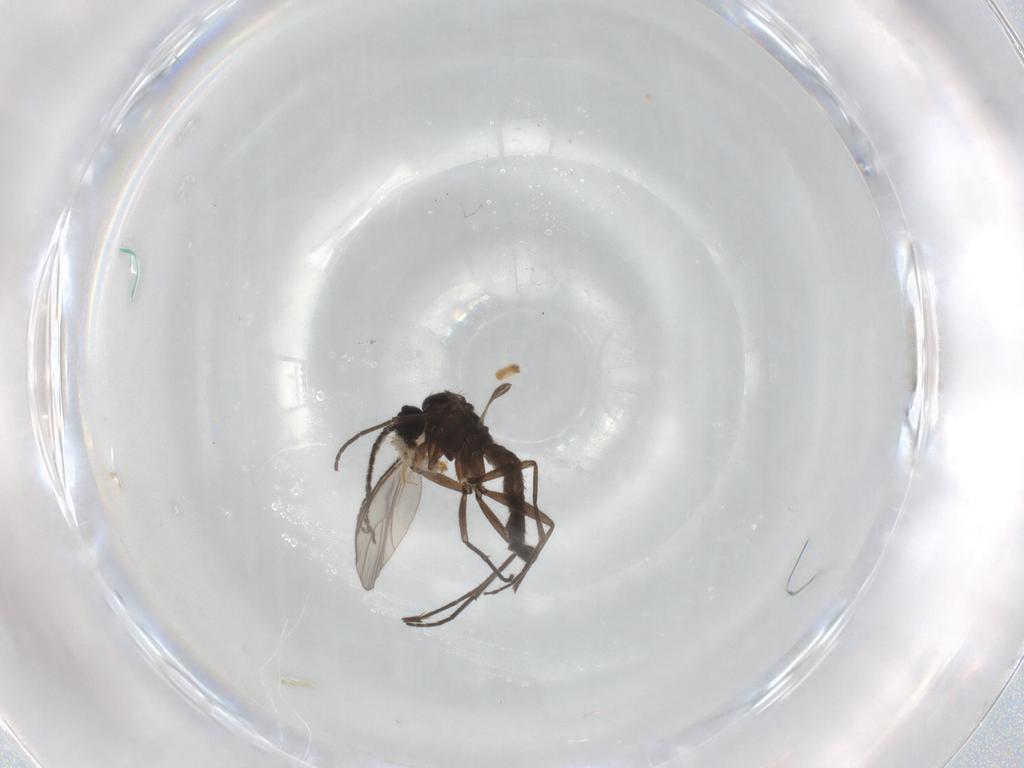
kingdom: Animalia
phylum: Arthropoda
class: Insecta
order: Diptera
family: Sciaridae
